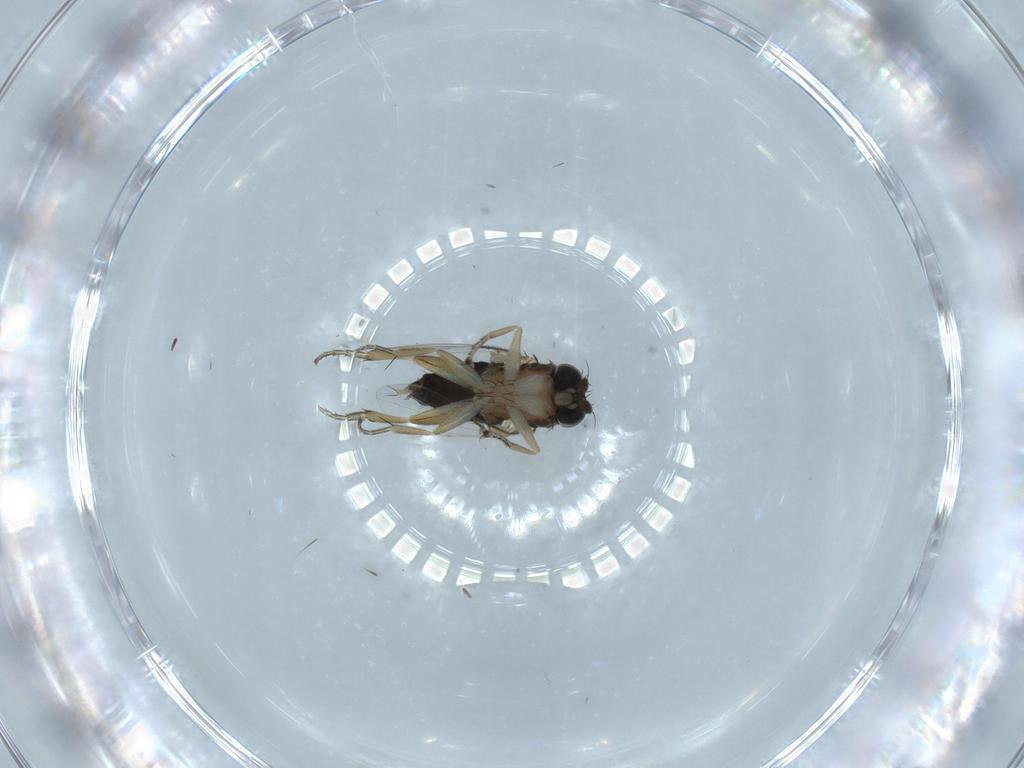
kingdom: Animalia
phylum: Arthropoda
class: Insecta
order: Diptera
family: Phoridae
